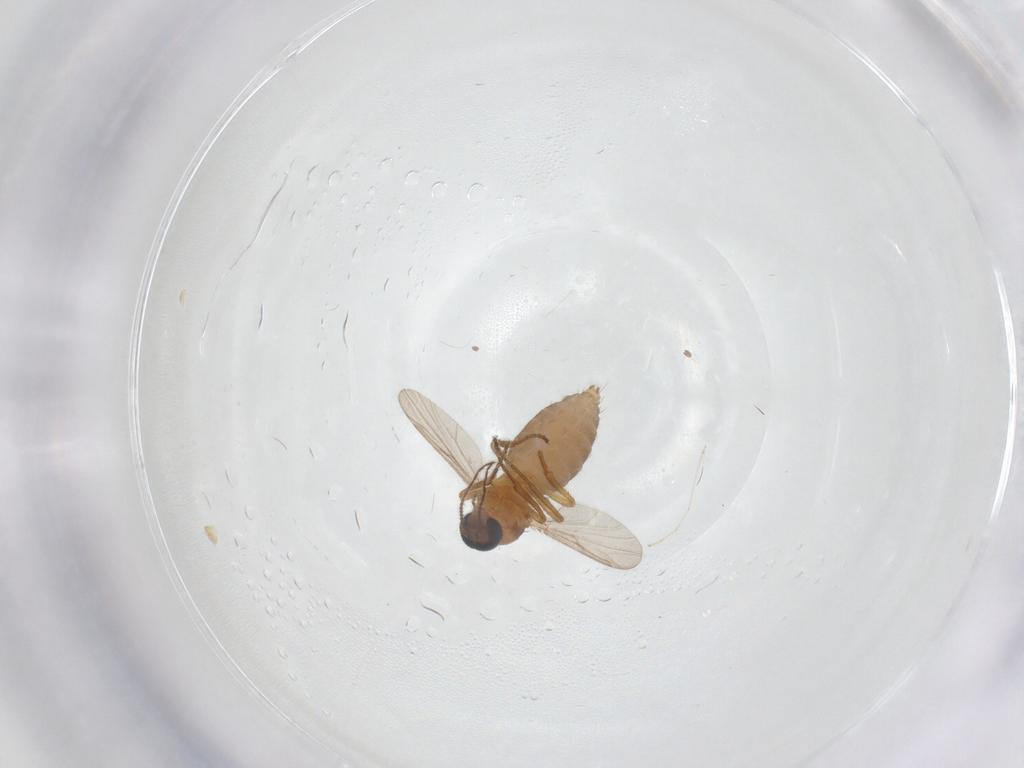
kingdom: Animalia
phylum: Arthropoda
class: Insecta
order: Diptera
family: Ceratopogonidae
